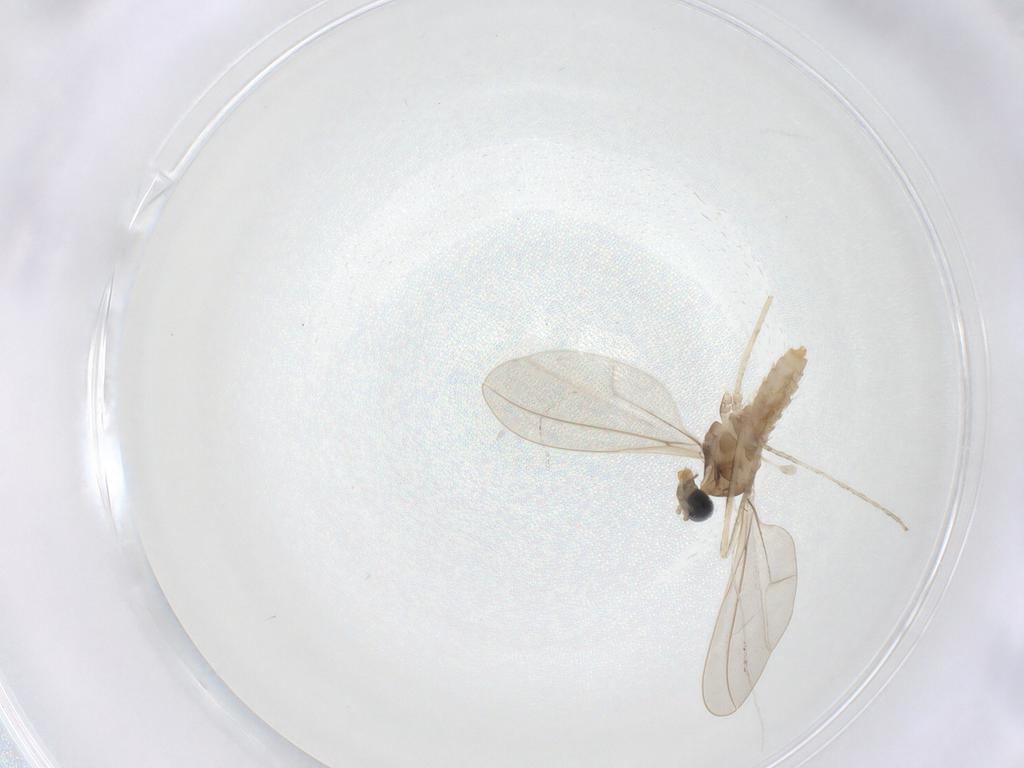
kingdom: Animalia
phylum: Arthropoda
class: Insecta
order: Diptera
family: Cecidomyiidae
